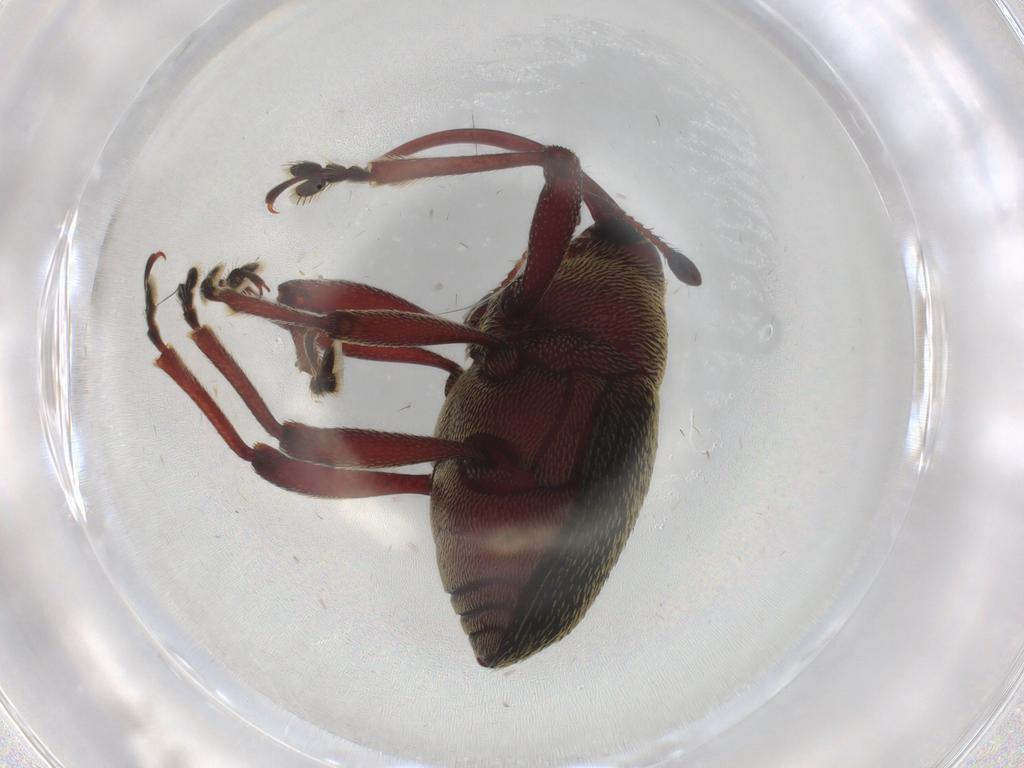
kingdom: Animalia
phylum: Arthropoda
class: Insecta
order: Coleoptera
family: Curculionidae
